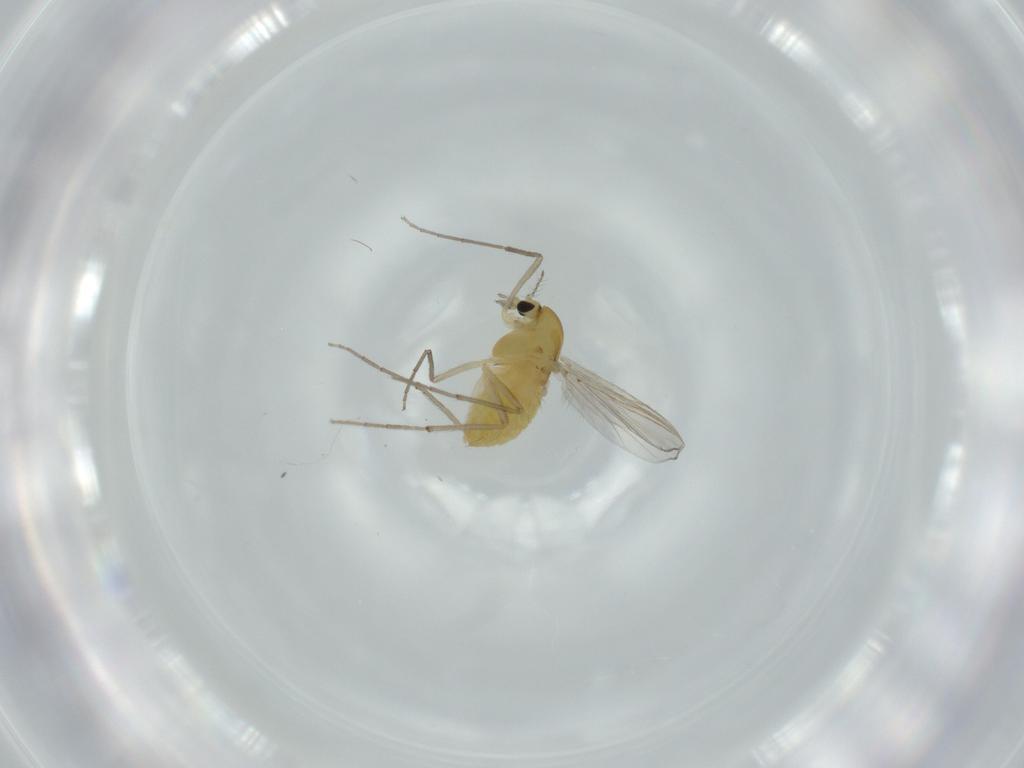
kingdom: Animalia
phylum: Arthropoda
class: Insecta
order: Diptera
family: Chironomidae
